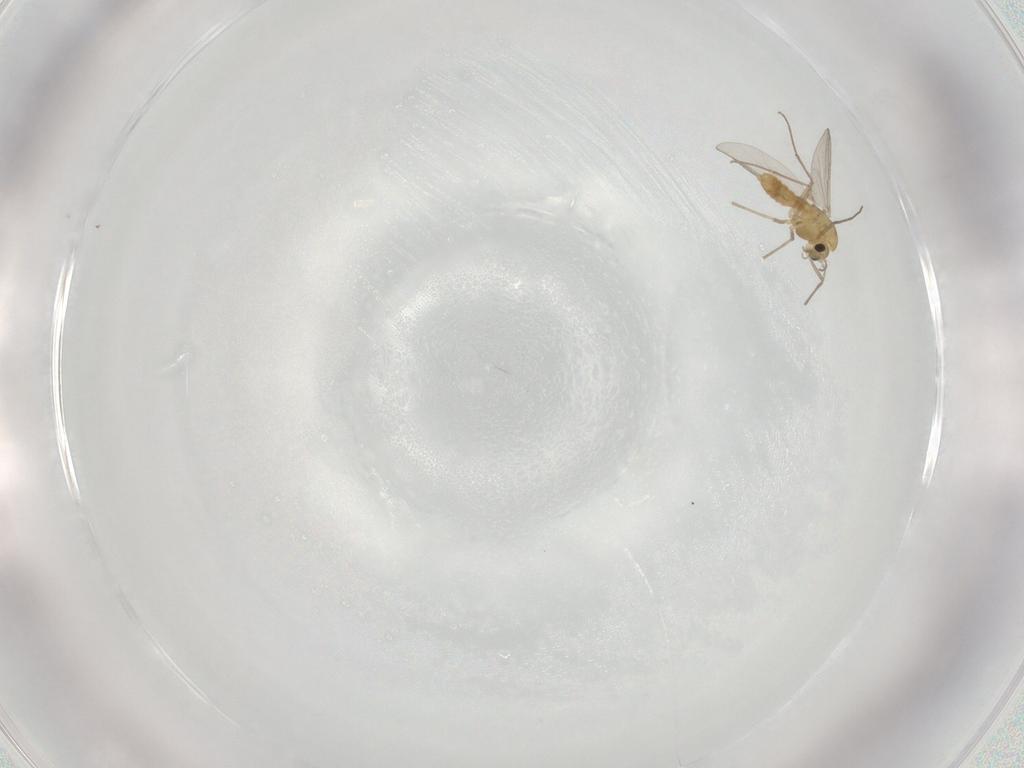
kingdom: Animalia
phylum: Arthropoda
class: Insecta
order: Diptera
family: Chironomidae
